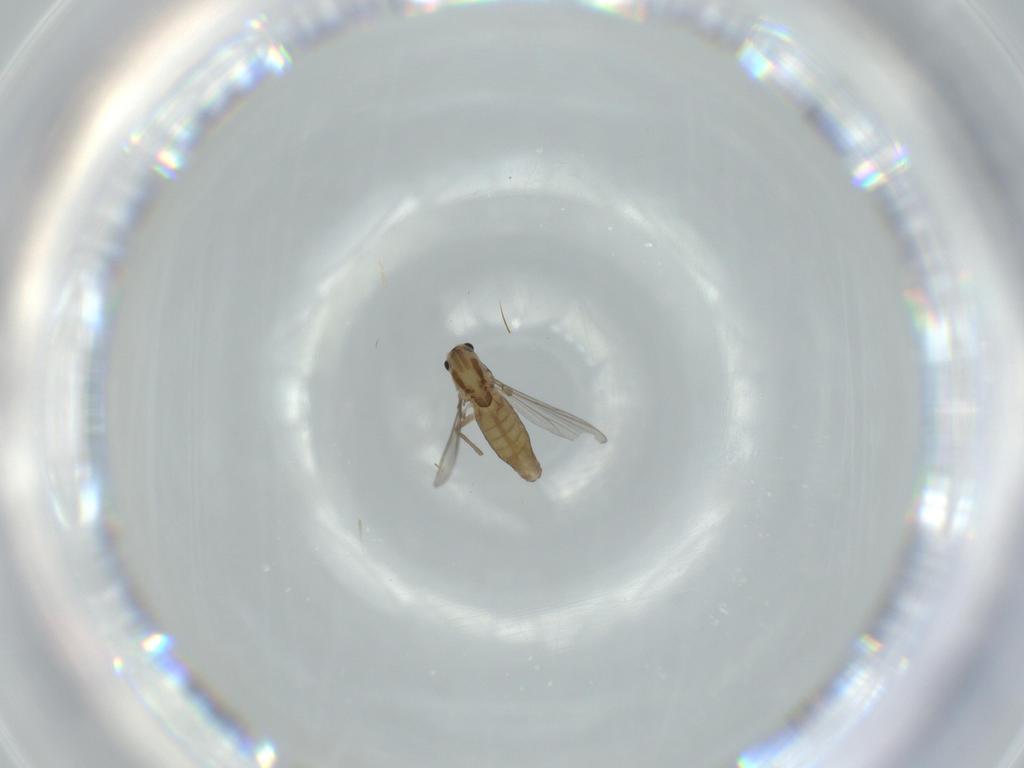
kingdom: Animalia
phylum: Arthropoda
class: Insecta
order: Diptera
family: Chironomidae
